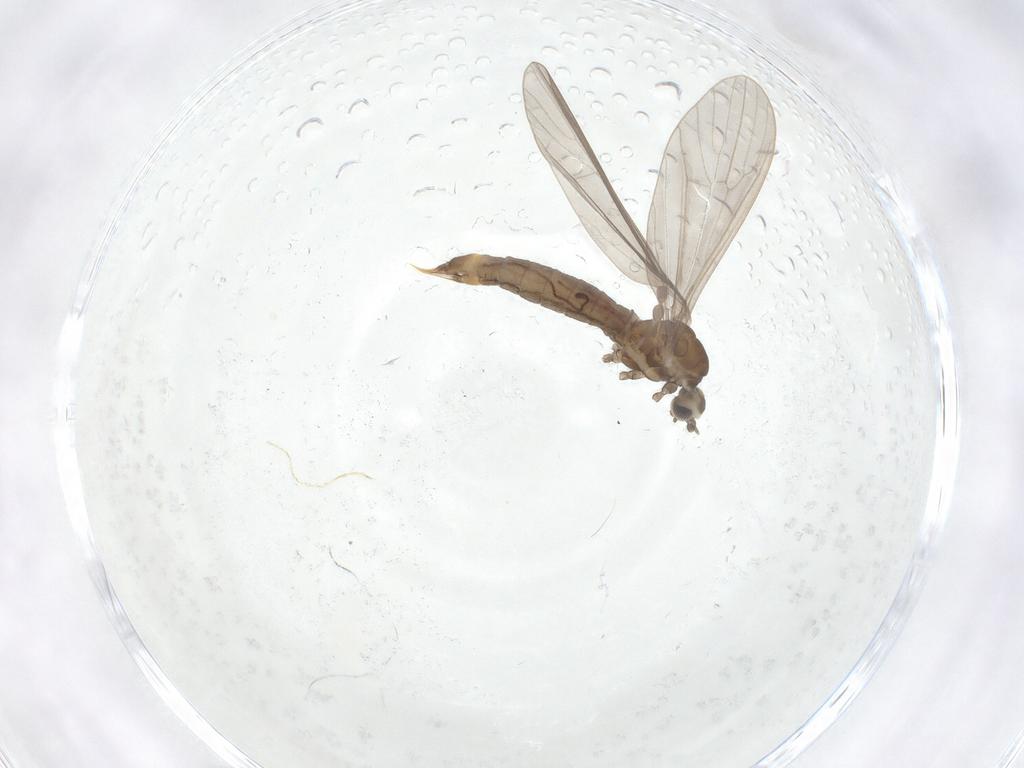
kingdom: Animalia
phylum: Arthropoda
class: Insecta
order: Diptera
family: Limoniidae
